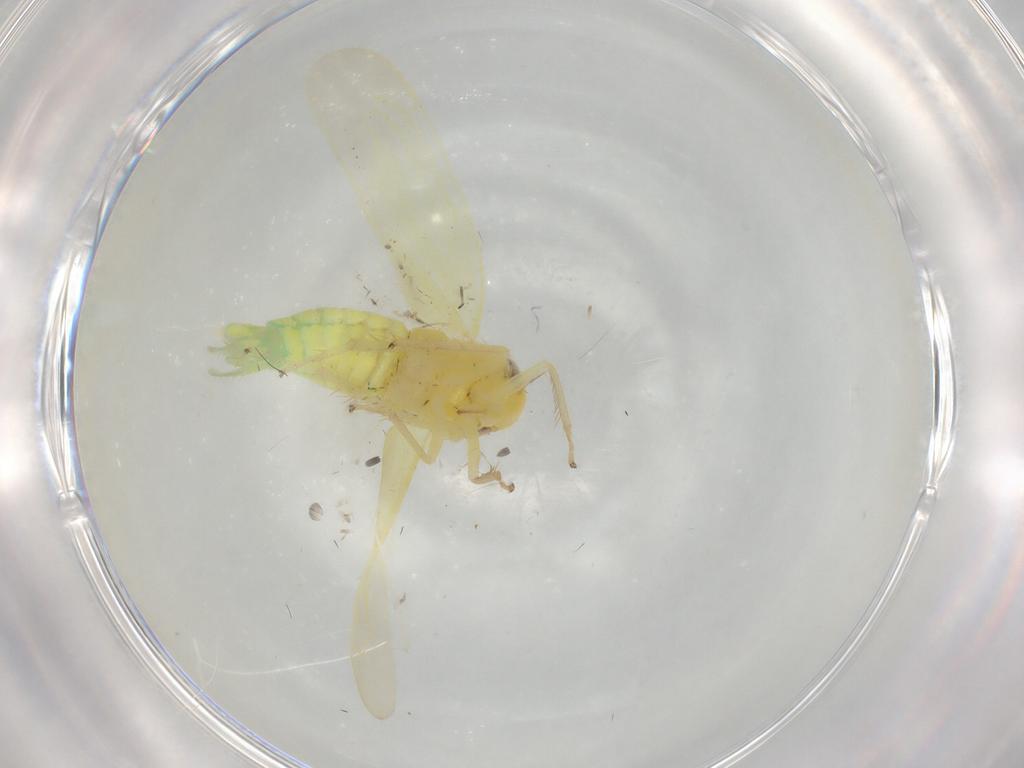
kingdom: Animalia
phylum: Arthropoda
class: Insecta
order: Hemiptera
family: Cicadellidae
